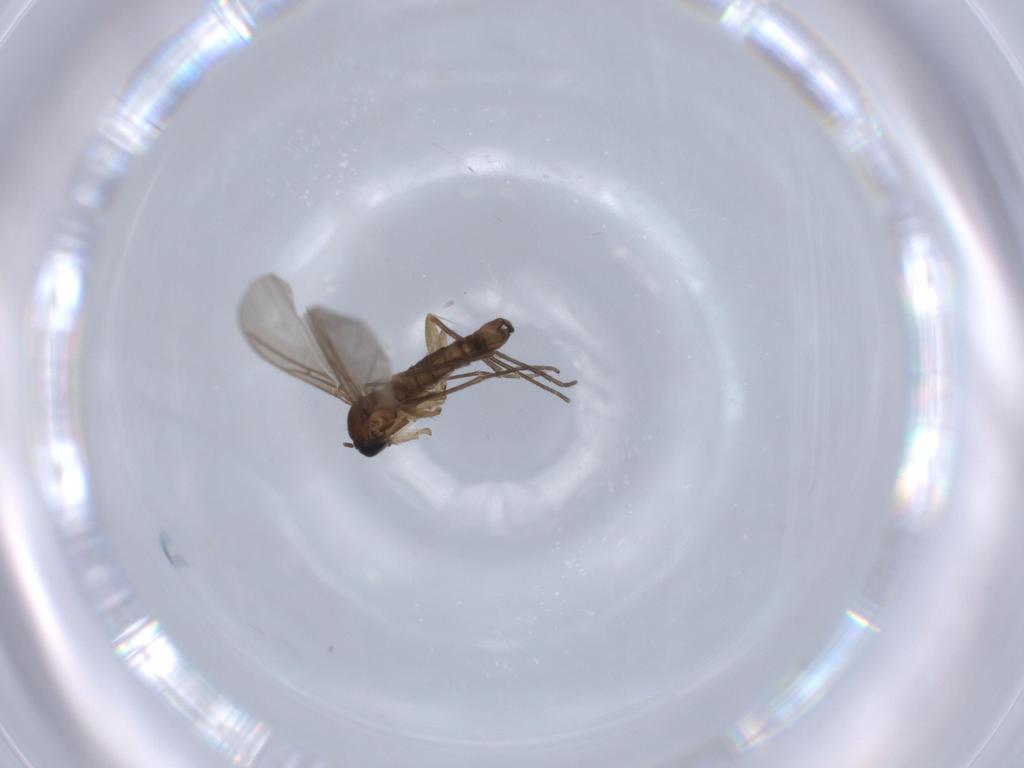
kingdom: Animalia
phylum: Arthropoda
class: Insecta
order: Diptera
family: Sciaridae
